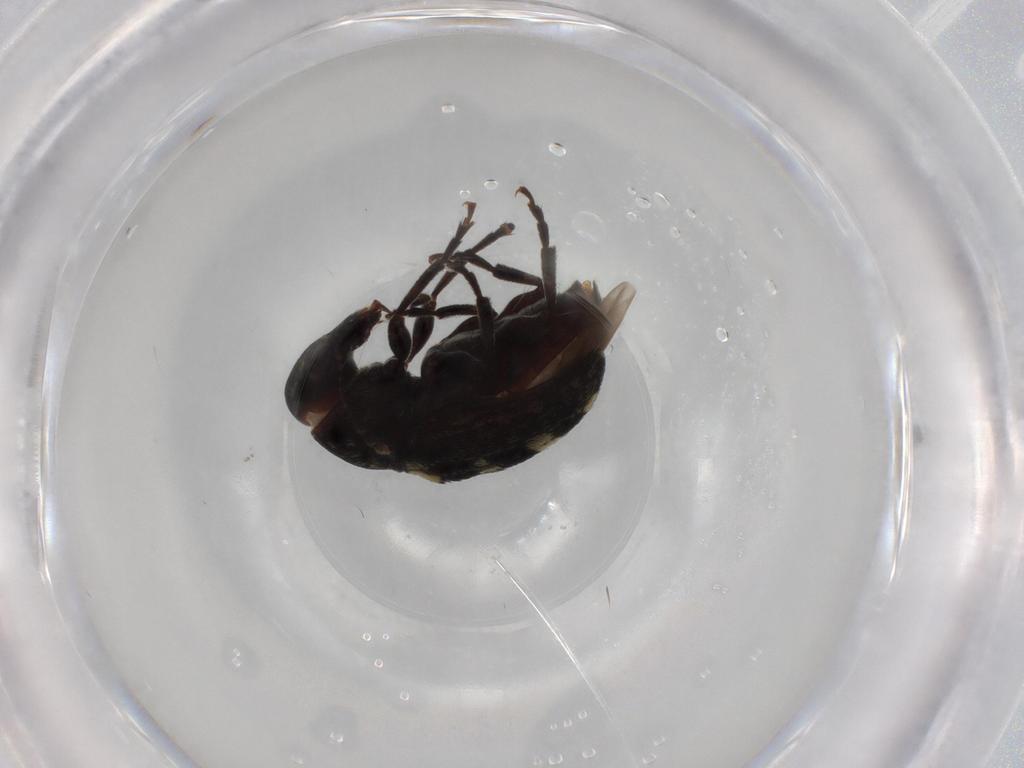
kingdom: Animalia
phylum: Arthropoda
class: Insecta
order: Coleoptera
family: Anthribidae
